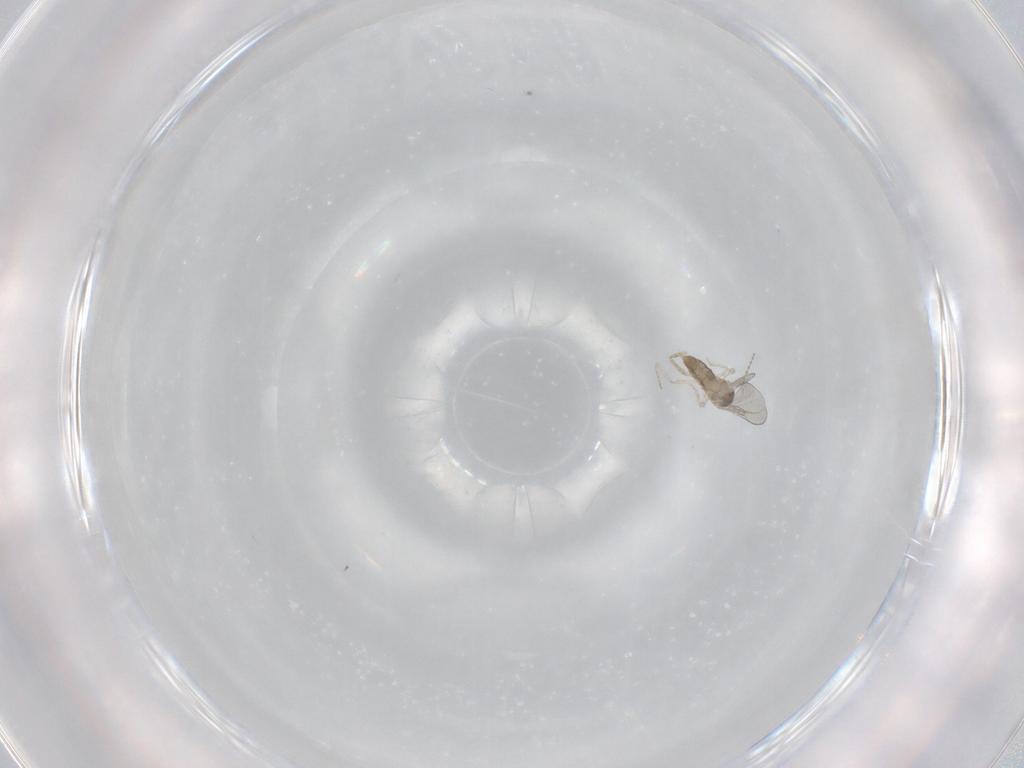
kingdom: Animalia
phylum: Arthropoda
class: Insecta
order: Diptera
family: Cecidomyiidae
